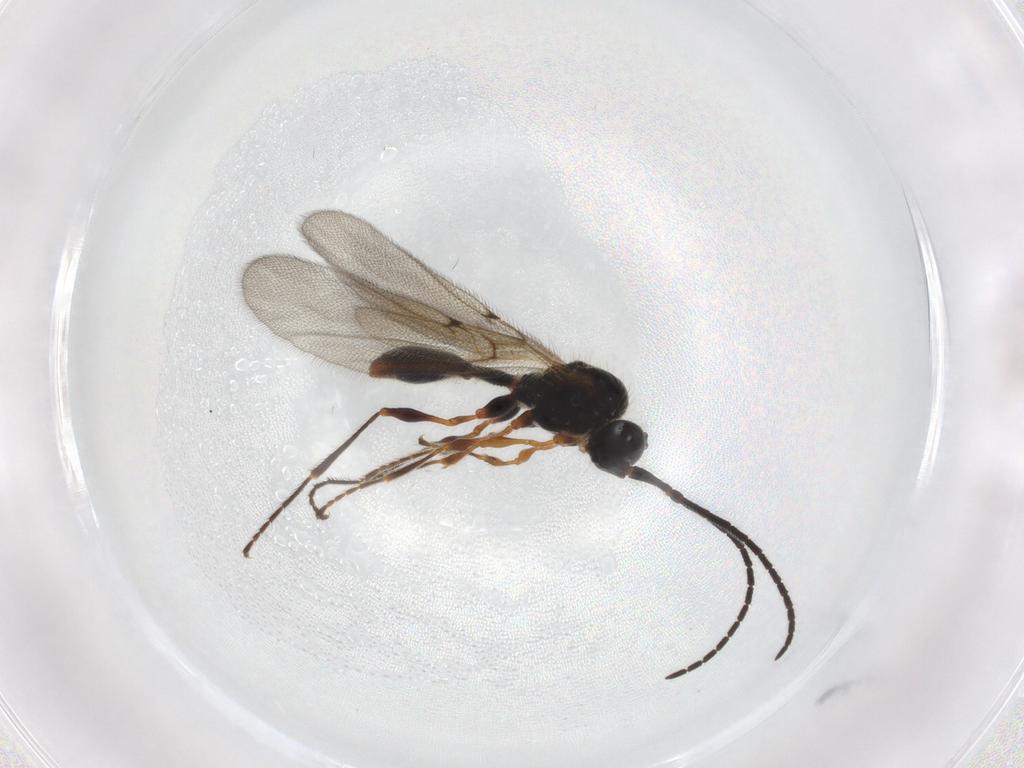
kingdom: Animalia
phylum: Arthropoda
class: Insecta
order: Hymenoptera
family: Diapriidae
